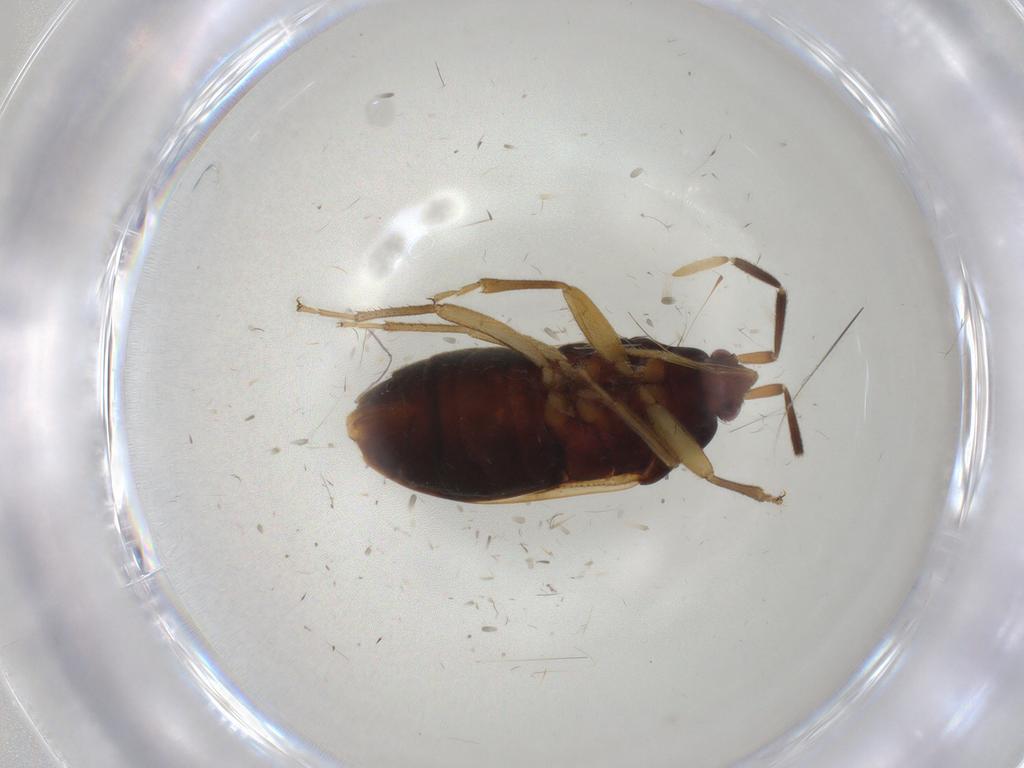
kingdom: Animalia
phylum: Arthropoda
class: Insecta
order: Hemiptera
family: Rhyparochromidae
